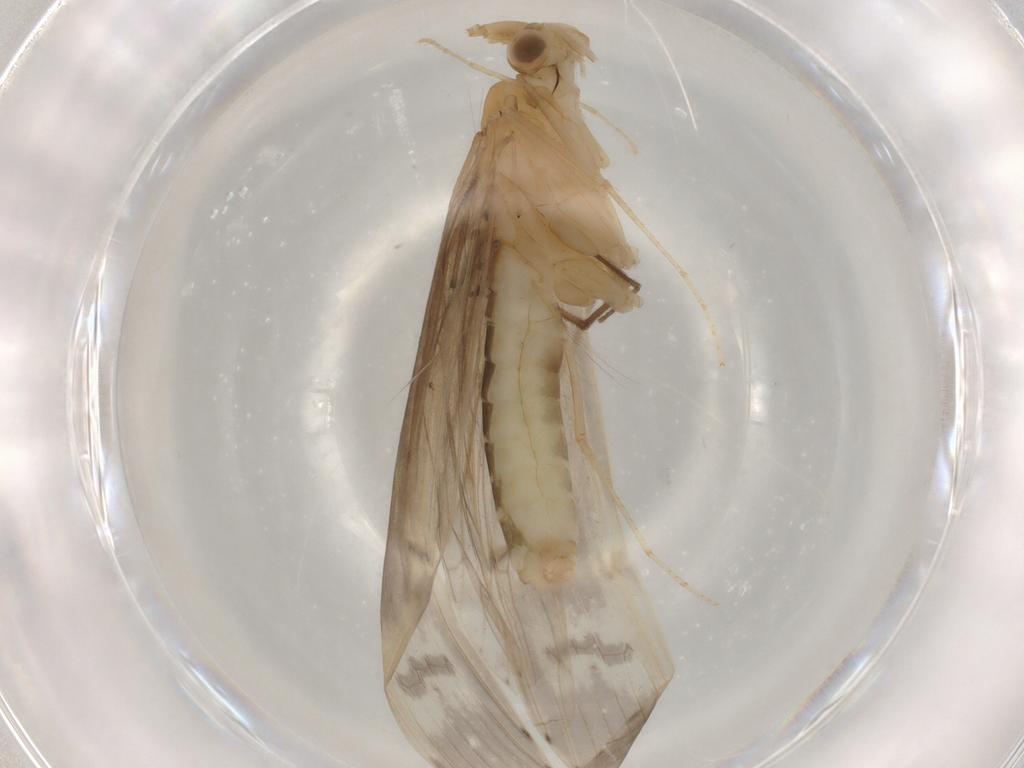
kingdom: Animalia
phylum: Arthropoda
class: Insecta
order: Trichoptera
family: Leptoceridae
